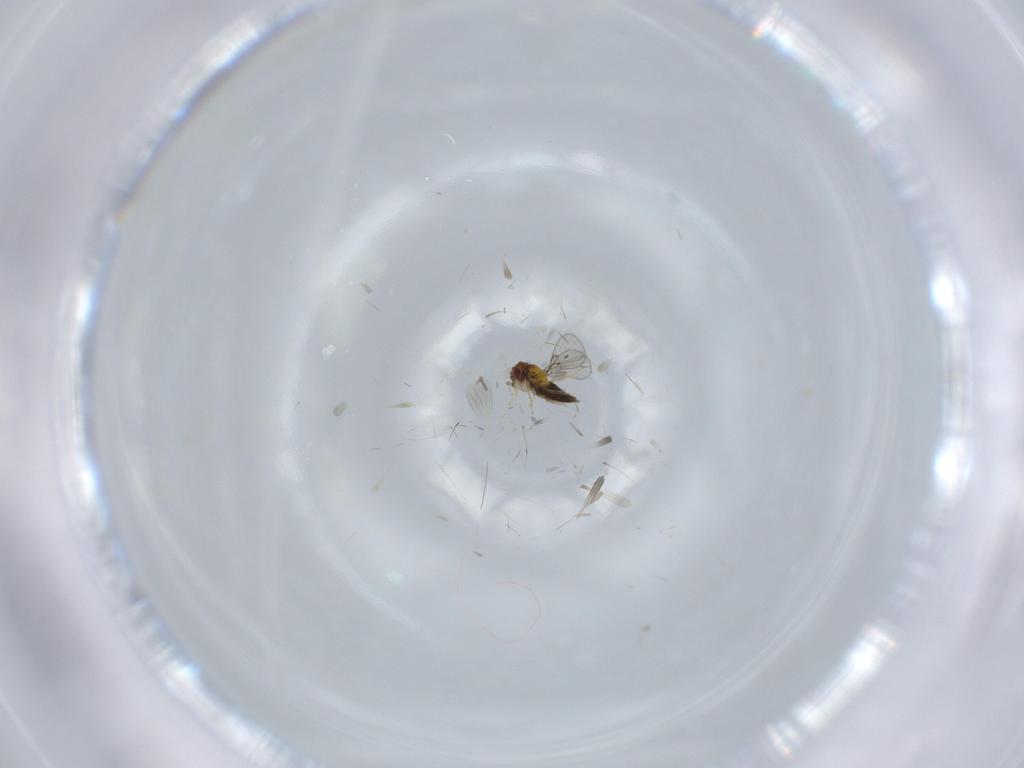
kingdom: Animalia
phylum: Arthropoda
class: Insecta
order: Hymenoptera
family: Trichogrammatidae
